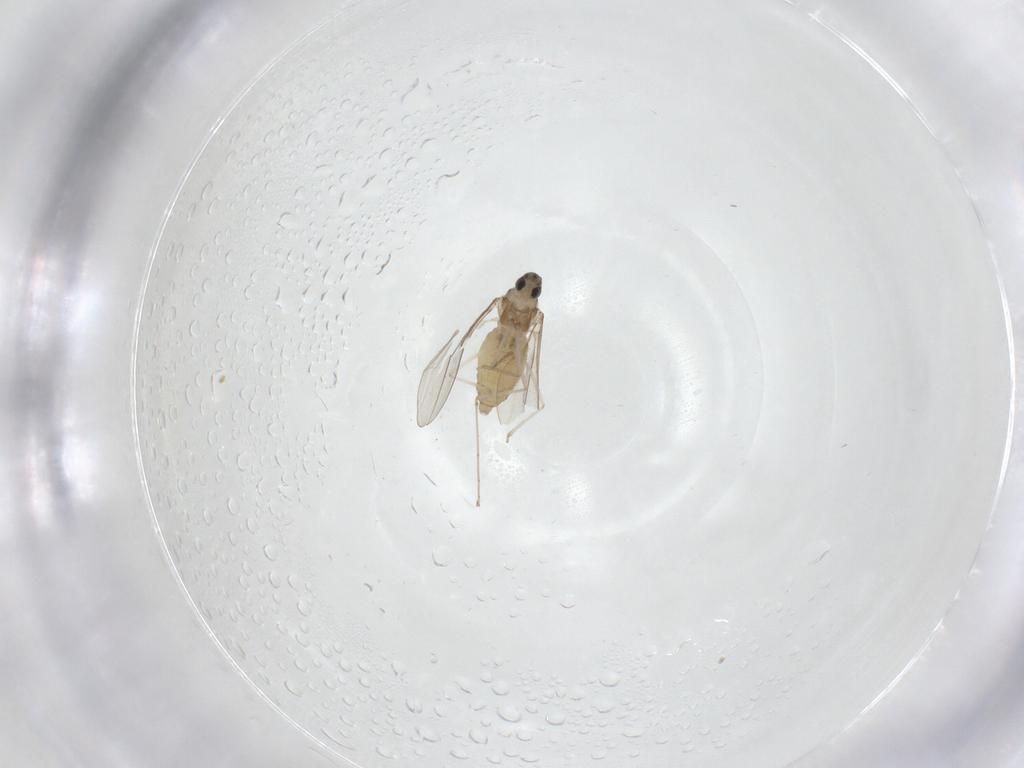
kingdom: Animalia
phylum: Arthropoda
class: Insecta
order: Diptera
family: Cecidomyiidae
